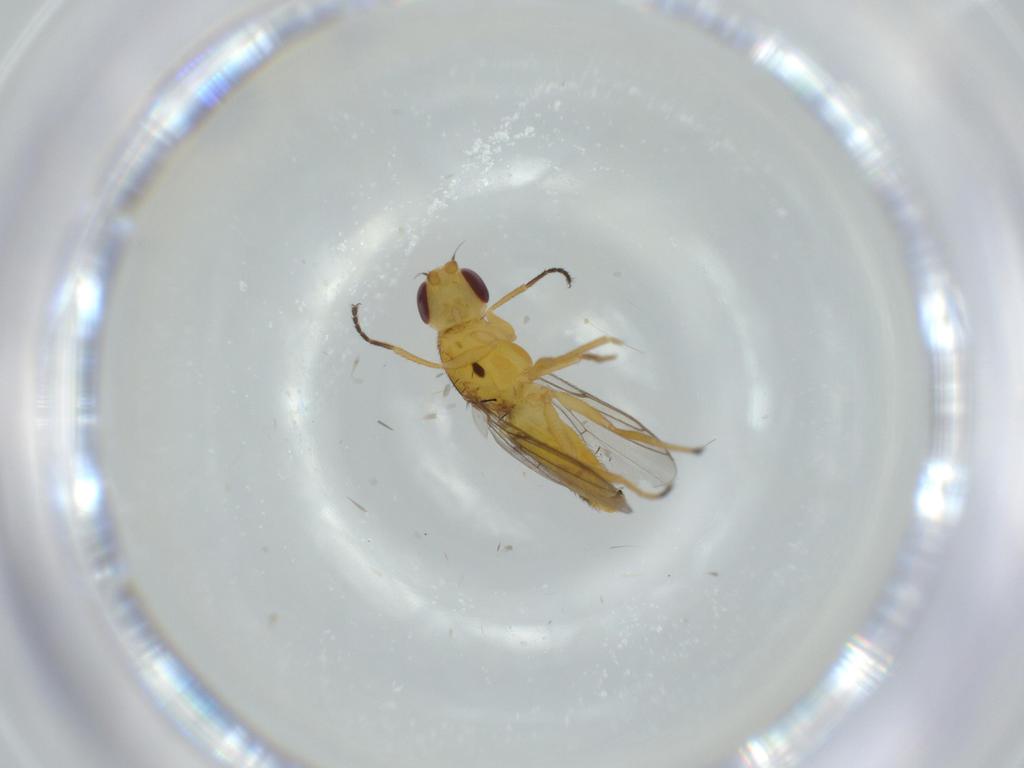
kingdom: Animalia
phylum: Arthropoda
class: Insecta
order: Diptera
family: Chloropidae
